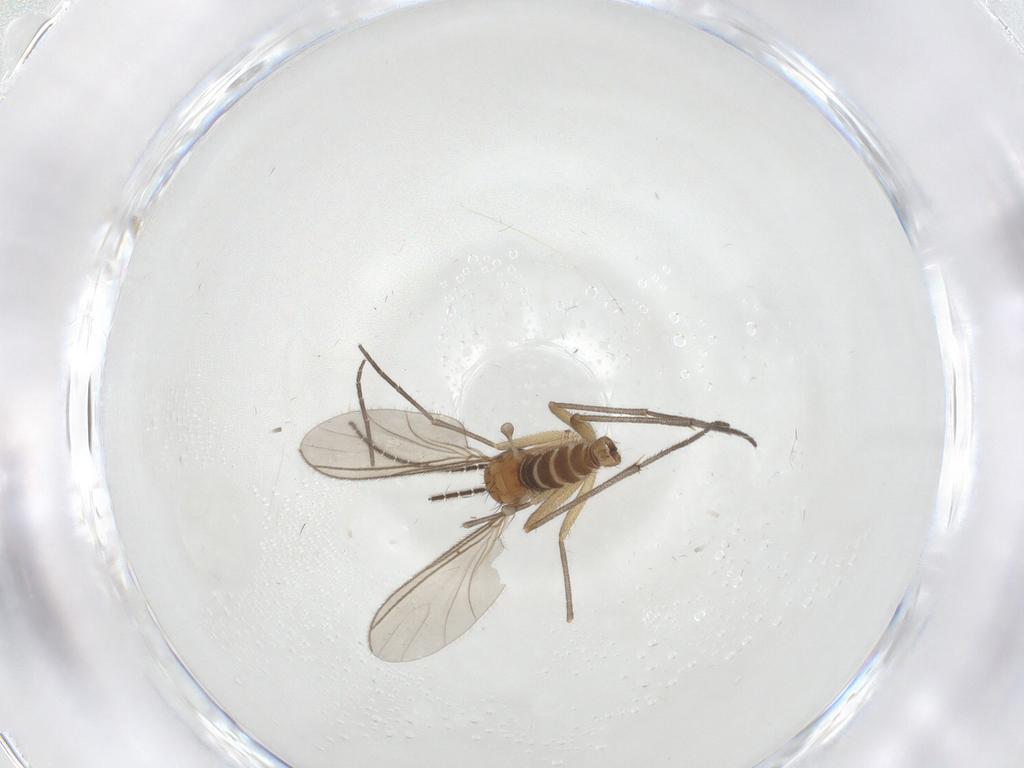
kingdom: Animalia
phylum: Arthropoda
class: Insecta
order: Diptera
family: Sciaridae
